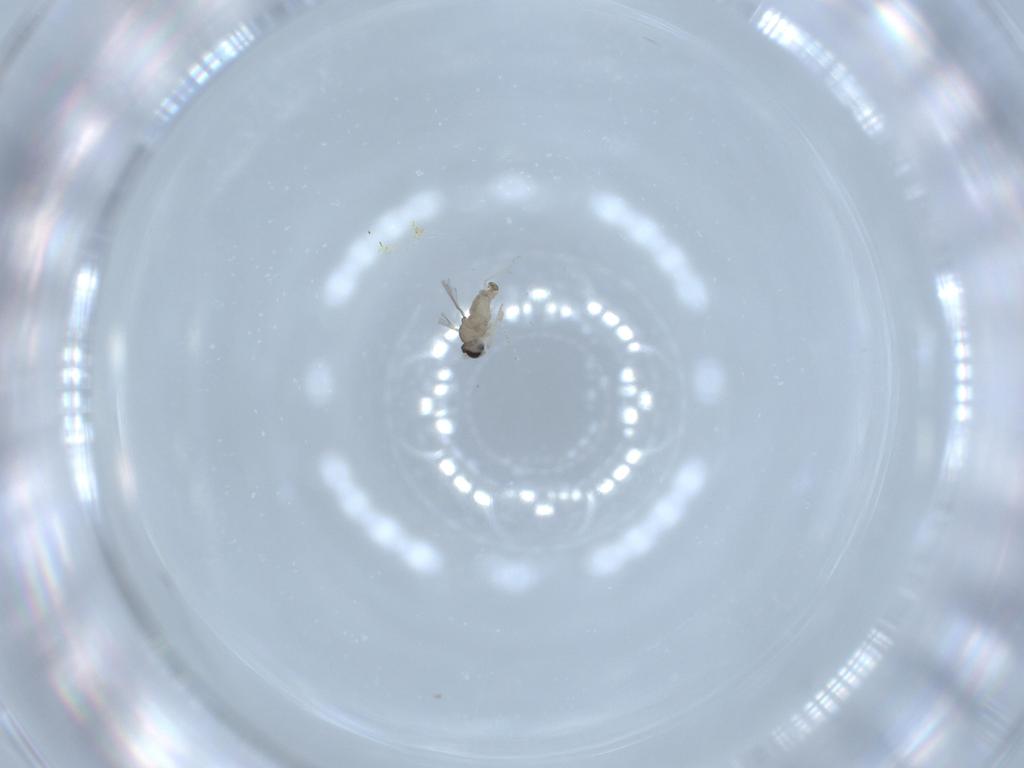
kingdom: Animalia
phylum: Arthropoda
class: Insecta
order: Diptera
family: Cecidomyiidae
